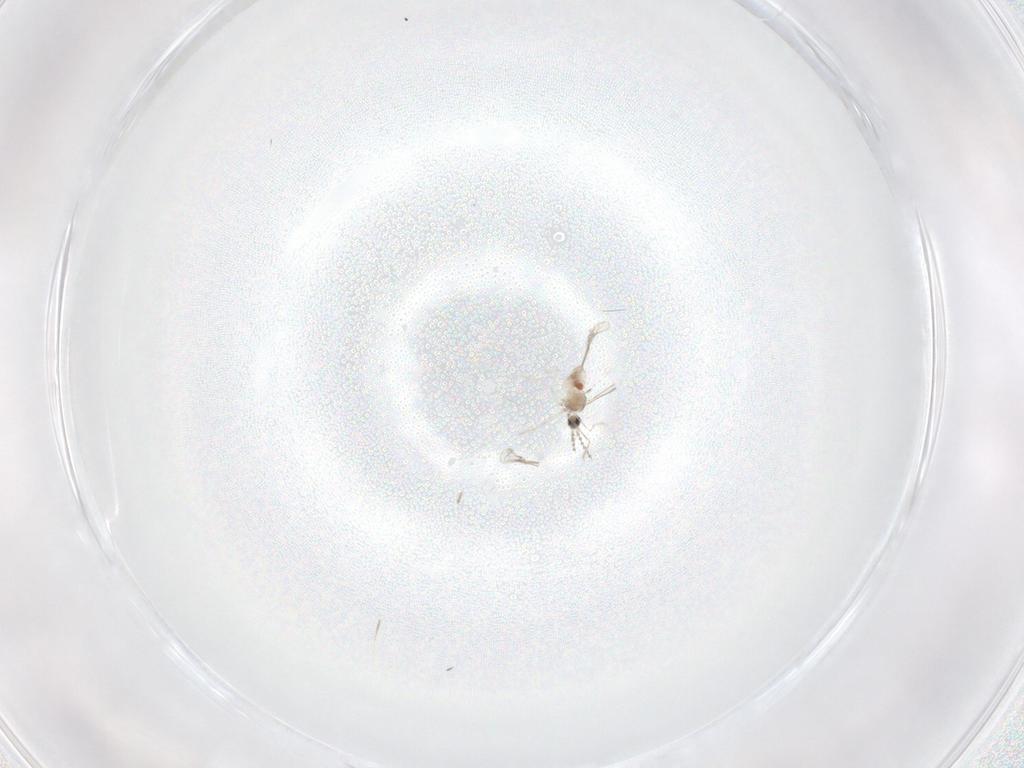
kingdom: Animalia
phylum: Arthropoda
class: Insecta
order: Diptera
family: Cecidomyiidae
